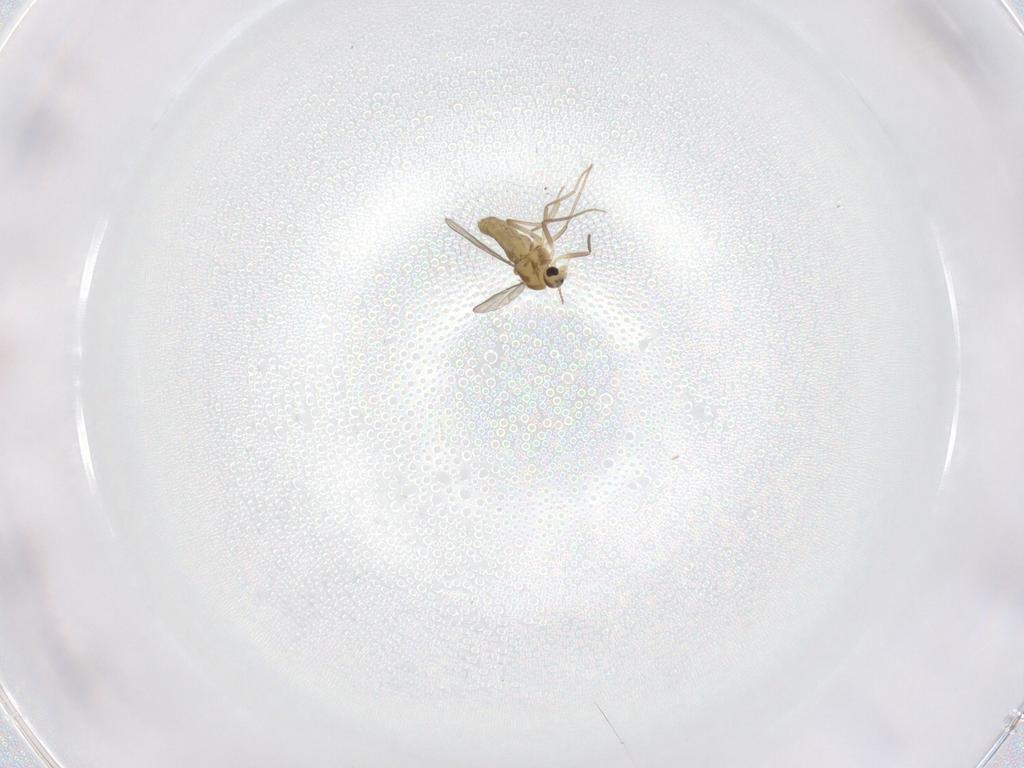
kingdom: Animalia
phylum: Arthropoda
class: Insecta
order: Diptera
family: Chironomidae
